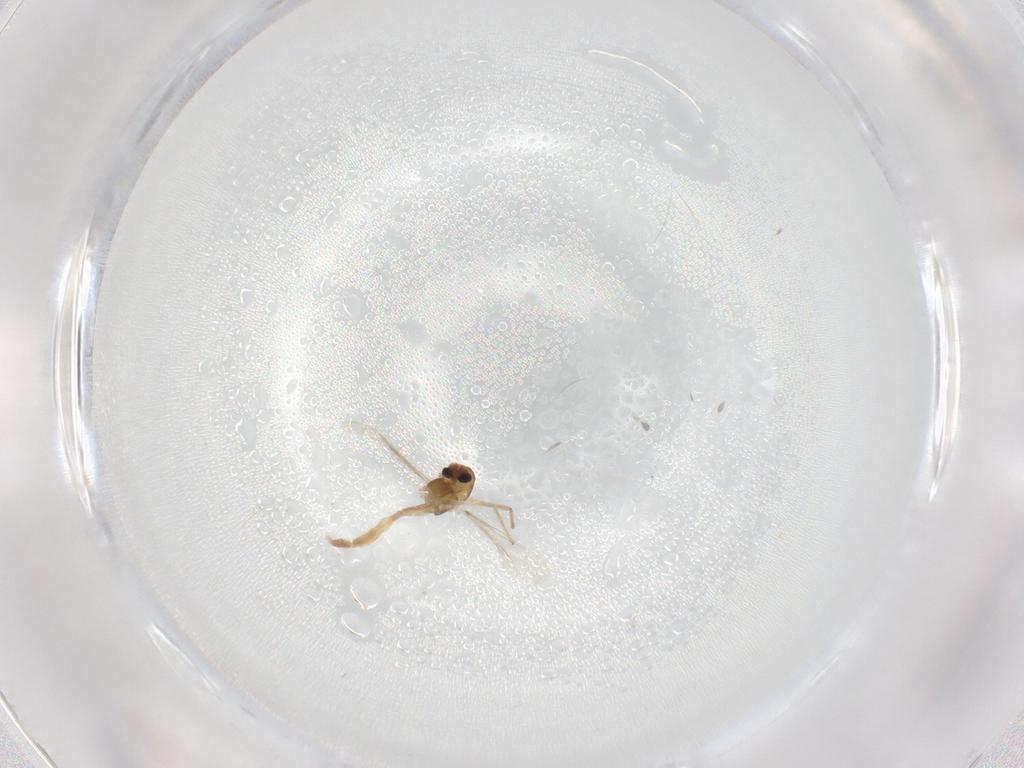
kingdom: Animalia
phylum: Arthropoda
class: Insecta
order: Diptera
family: Chironomidae
